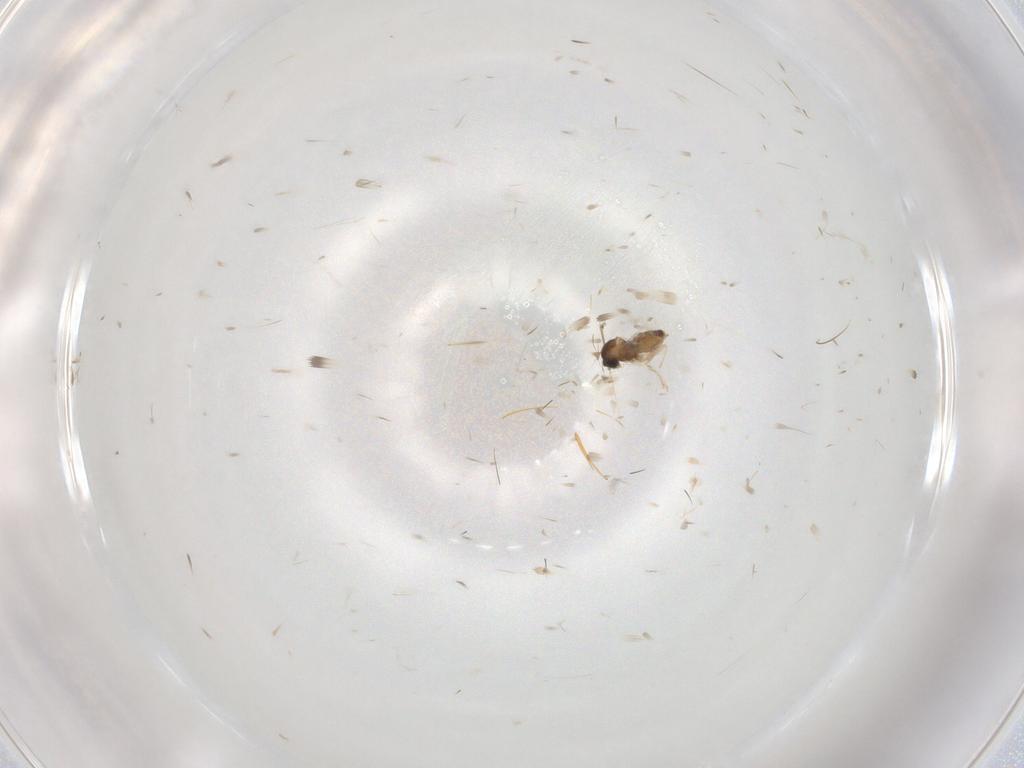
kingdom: Animalia
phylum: Arthropoda
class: Insecta
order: Diptera
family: Cecidomyiidae
